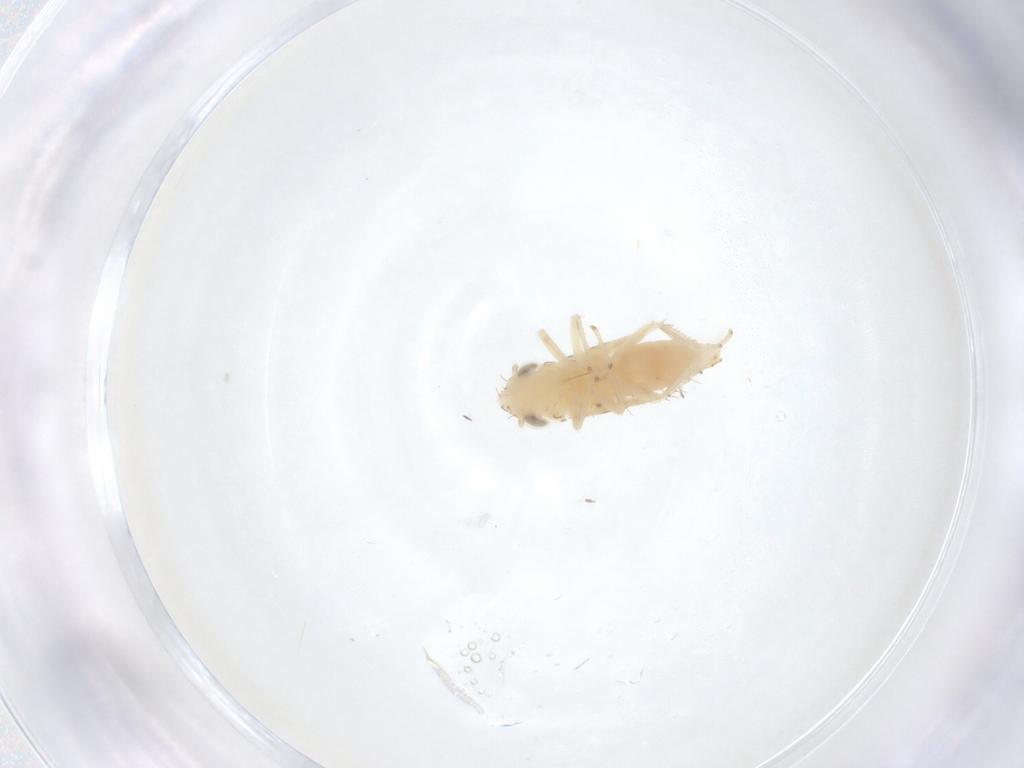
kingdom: Animalia
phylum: Arthropoda
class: Insecta
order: Hemiptera
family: Cicadellidae
